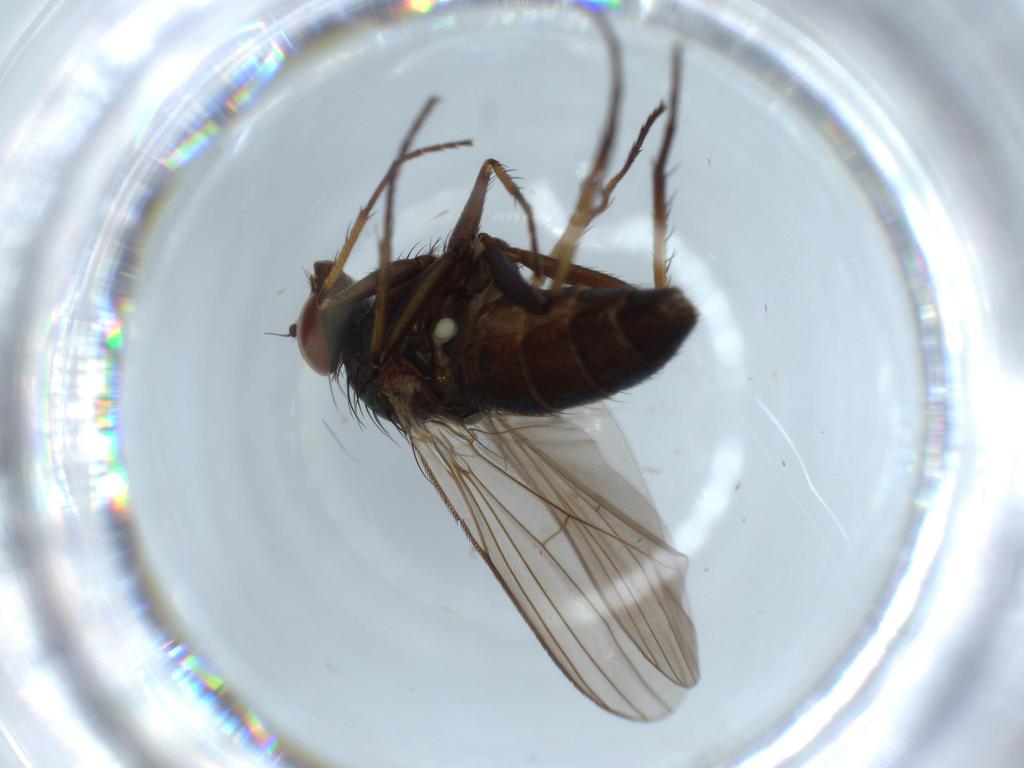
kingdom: Animalia
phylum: Arthropoda
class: Insecta
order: Diptera
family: Dolichopodidae
